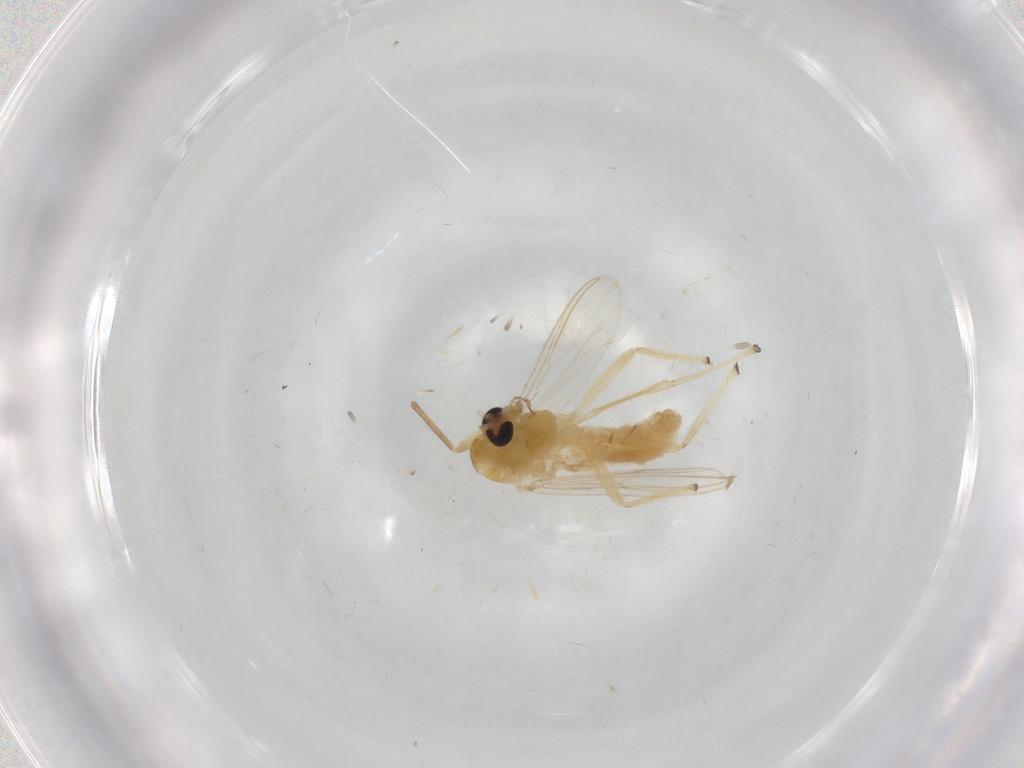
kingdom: Animalia
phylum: Arthropoda
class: Insecta
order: Diptera
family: Chironomidae
